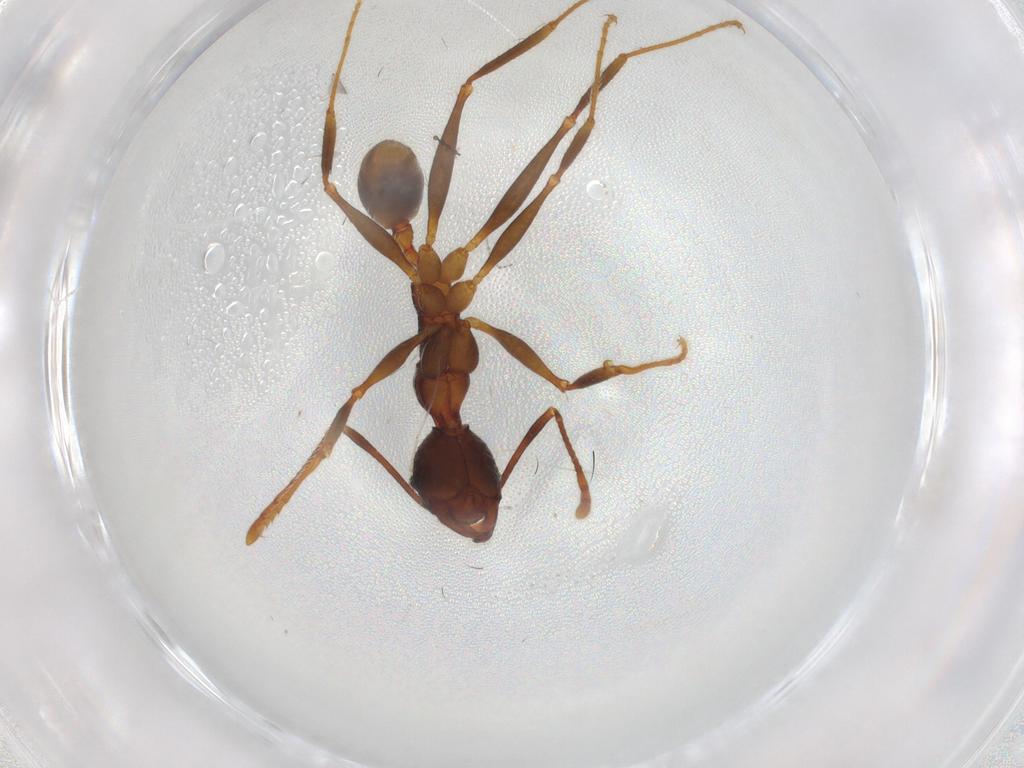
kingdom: Animalia
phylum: Arthropoda
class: Insecta
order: Hymenoptera
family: Formicidae
